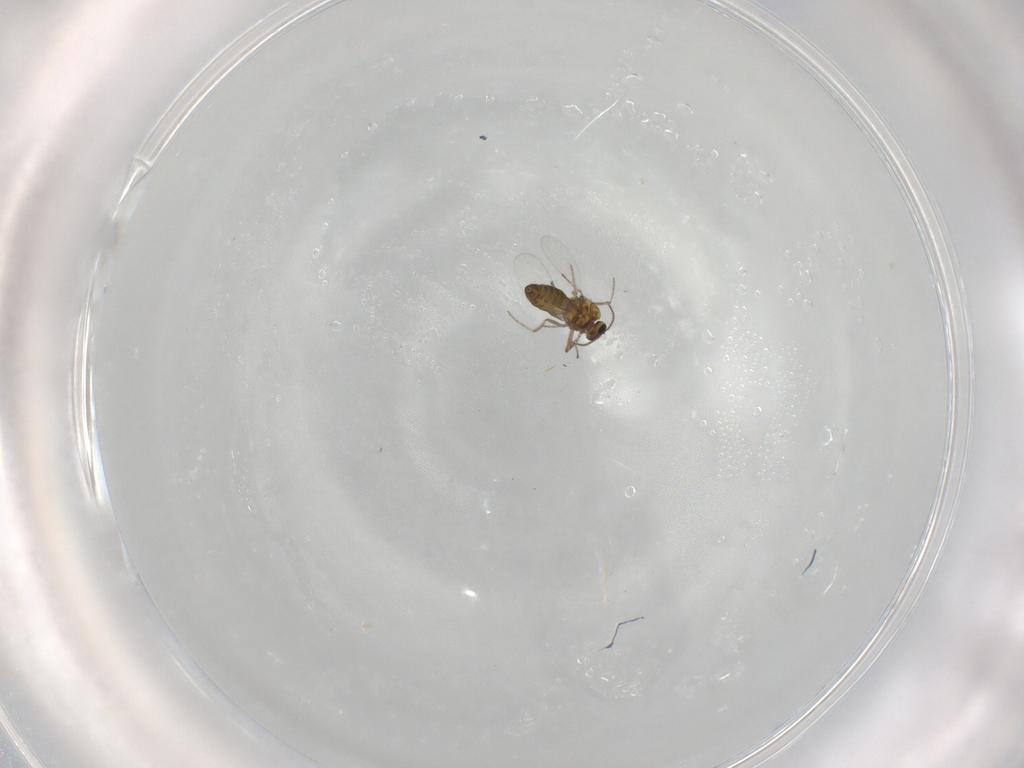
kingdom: Animalia
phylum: Arthropoda
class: Insecta
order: Diptera
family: Ceratopogonidae
